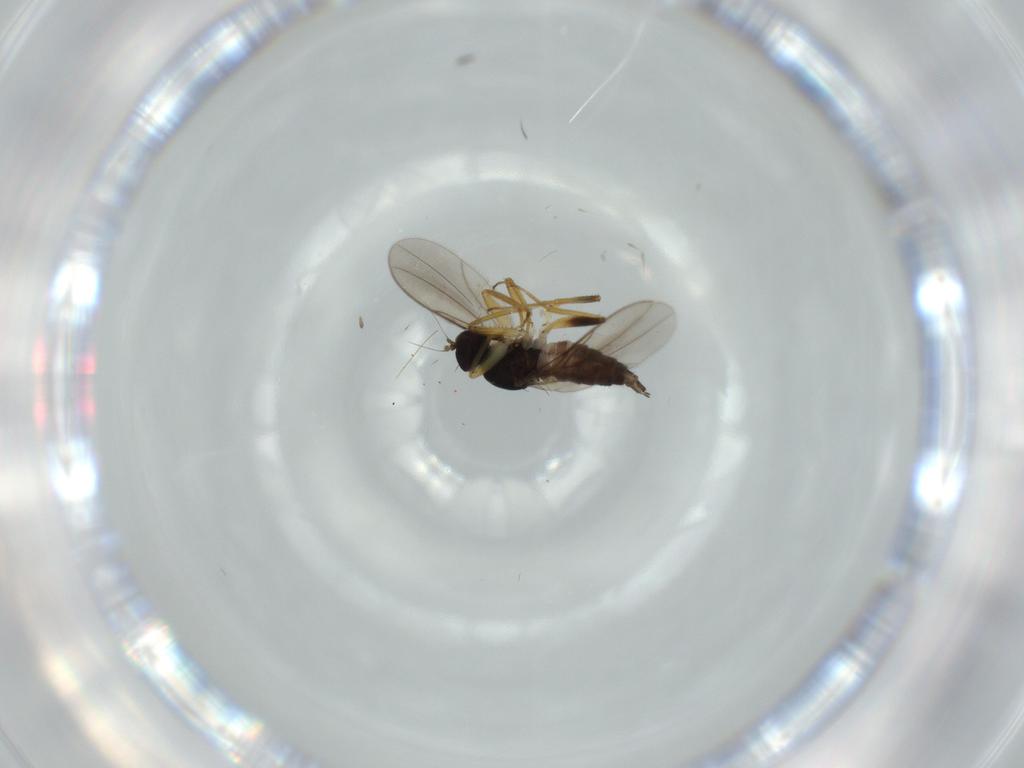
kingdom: Animalia
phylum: Arthropoda
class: Insecta
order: Diptera
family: Chloropidae
